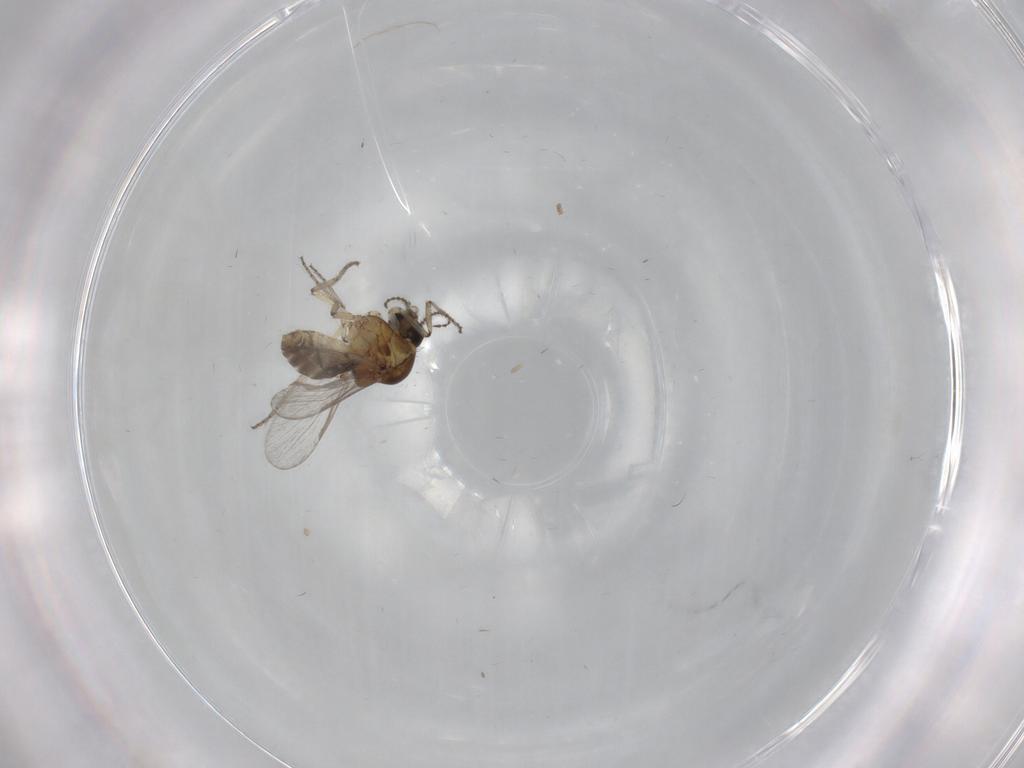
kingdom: Animalia
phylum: Arthropoda
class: Insecta
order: Diptera
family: Ceratopogonidae
